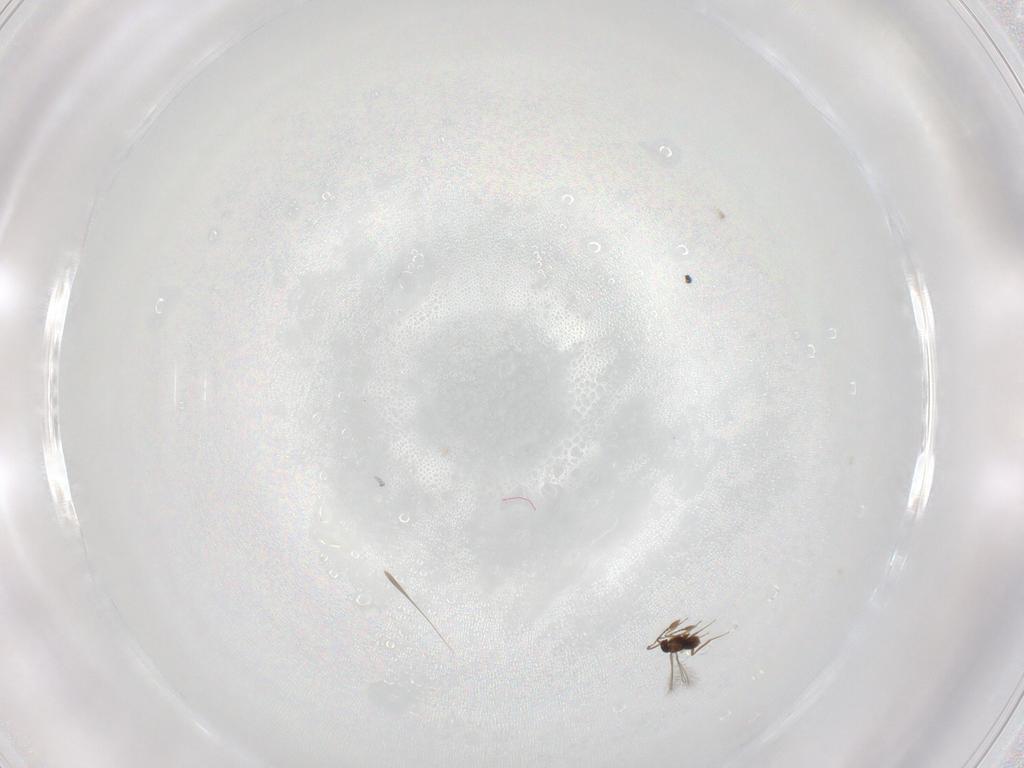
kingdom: Animalia
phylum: Arthropoda
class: Insecta
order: Hymenoptera
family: Mymaridae
